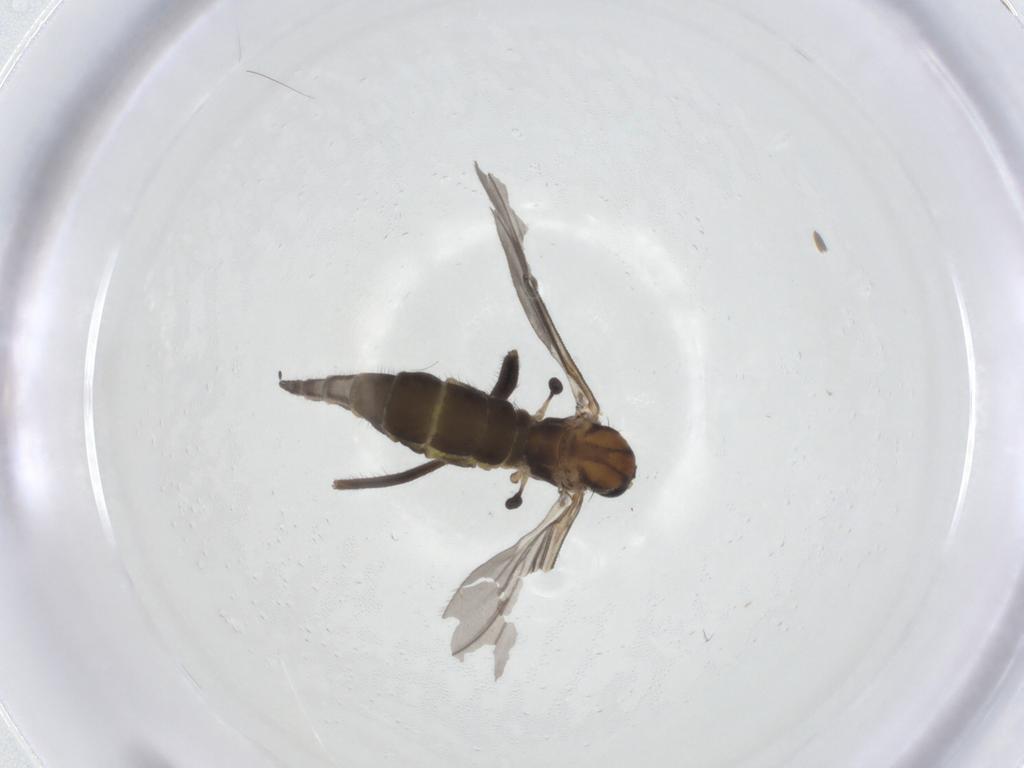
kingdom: Animalia
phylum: Arthropoda
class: Insecta
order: Diptera
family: Sciaridae
